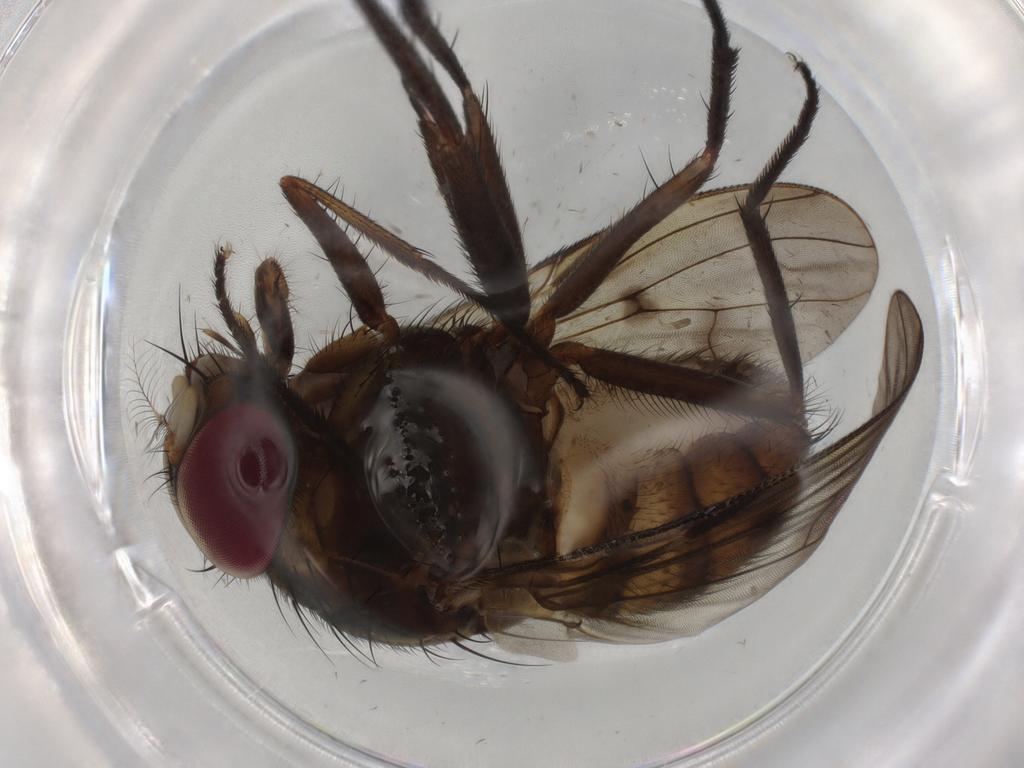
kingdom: Animalia
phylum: Arthropoda
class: Insecta
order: Diptera
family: Muscidae
